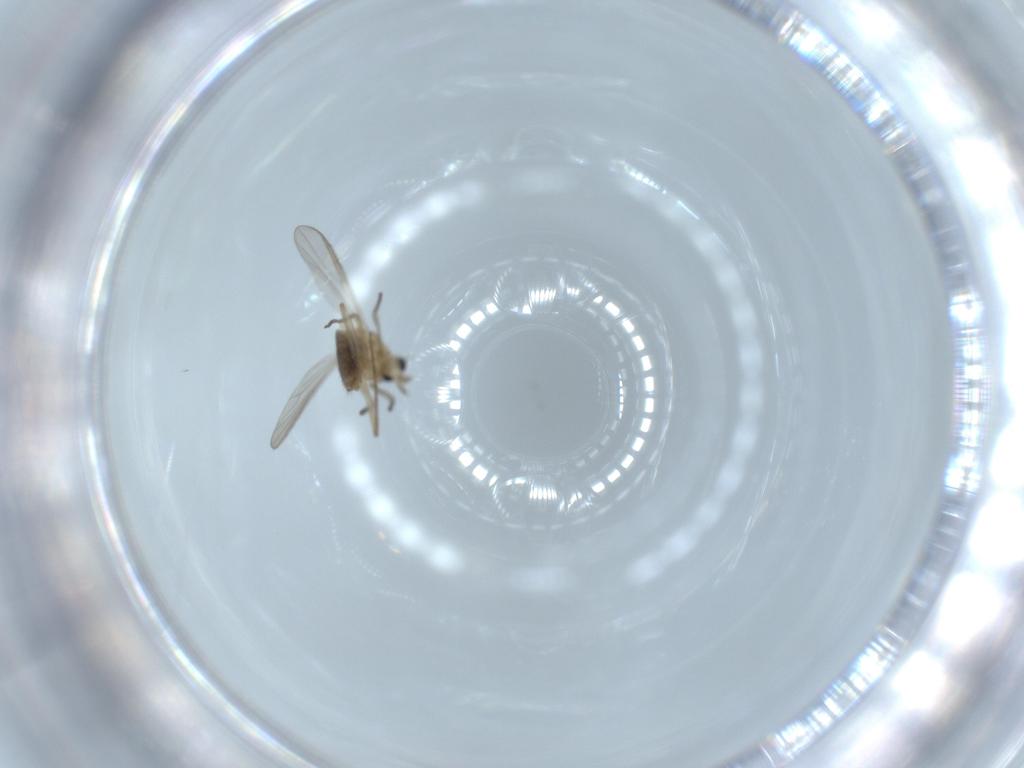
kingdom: Animalia
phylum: Arthropoda
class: Insecta
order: Diptera
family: Chironomidae
